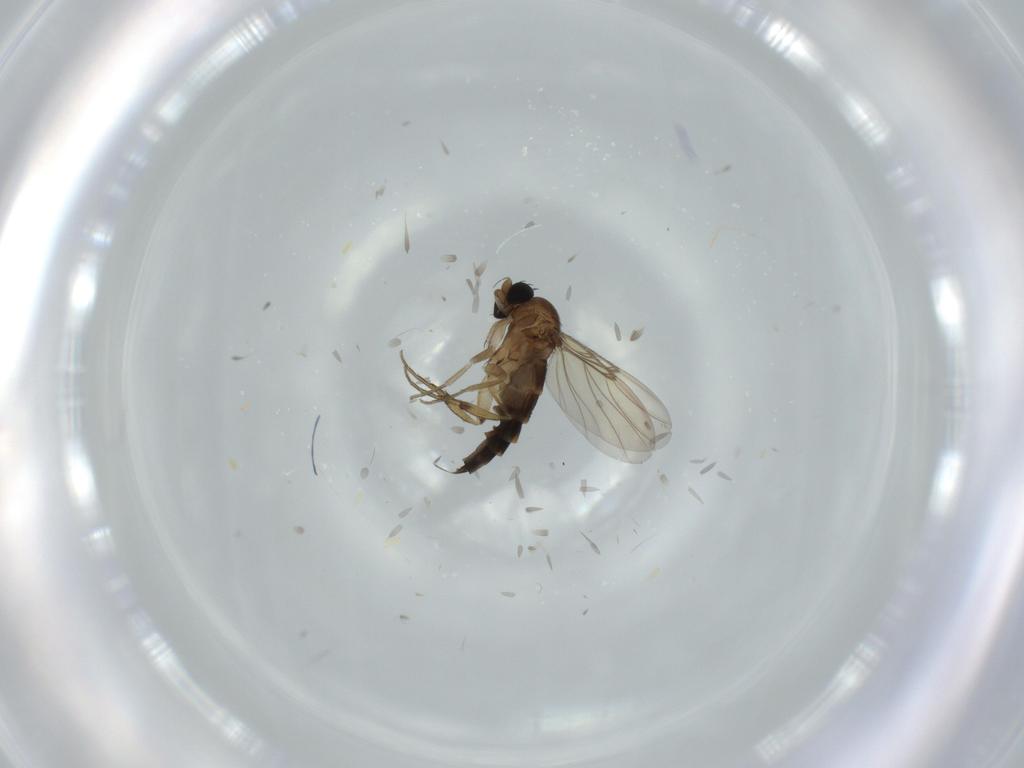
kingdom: Animalia
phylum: Arthropoda
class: Insecta
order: Diptera
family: Phoridae
